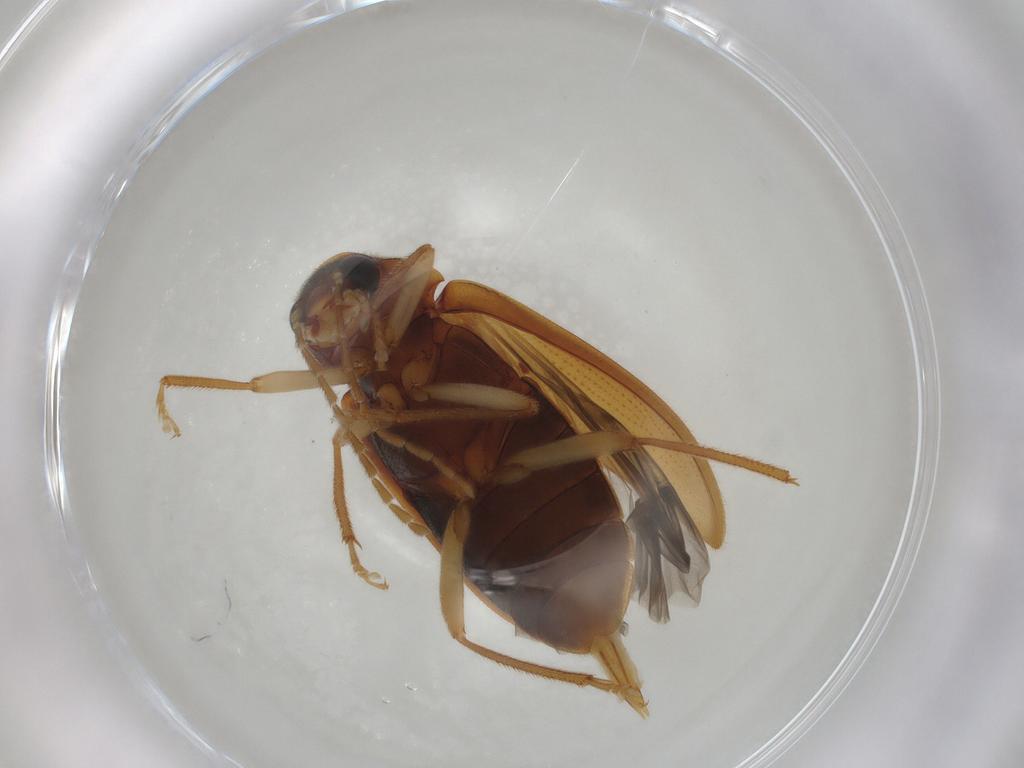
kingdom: Animalia
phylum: Arthropoda
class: Insecta
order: Coleoptera
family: Ptilodactylidae
